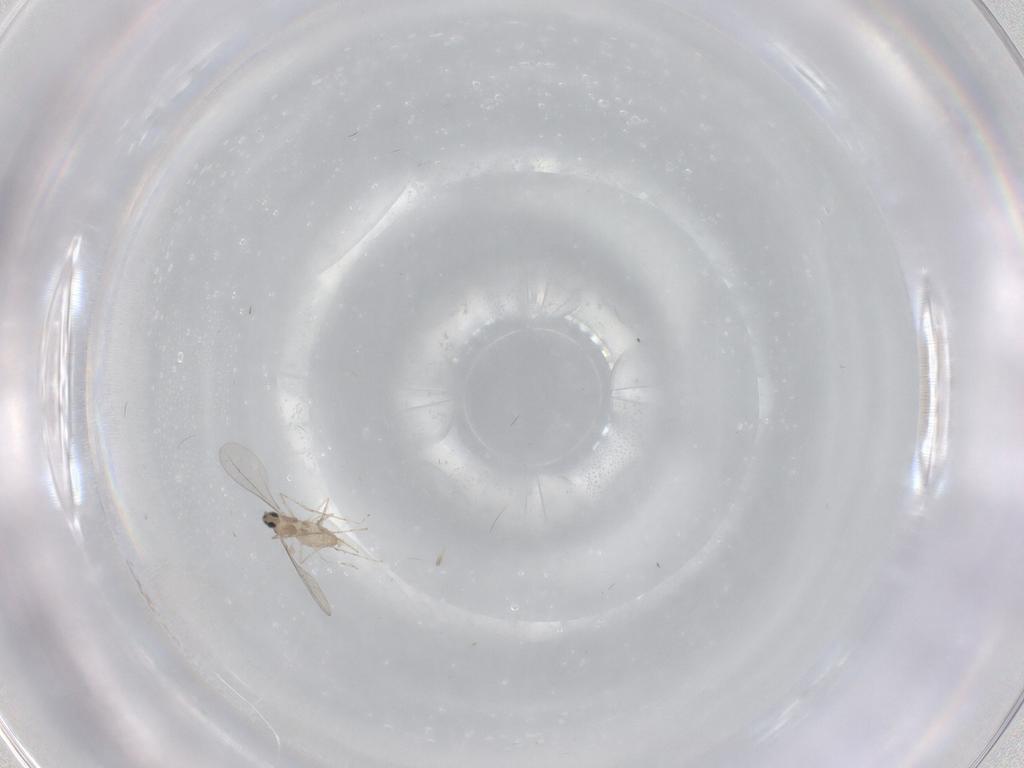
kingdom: Animalia
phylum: Arthropoda
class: Insecta
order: Diptera
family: Cecidomyiidae
